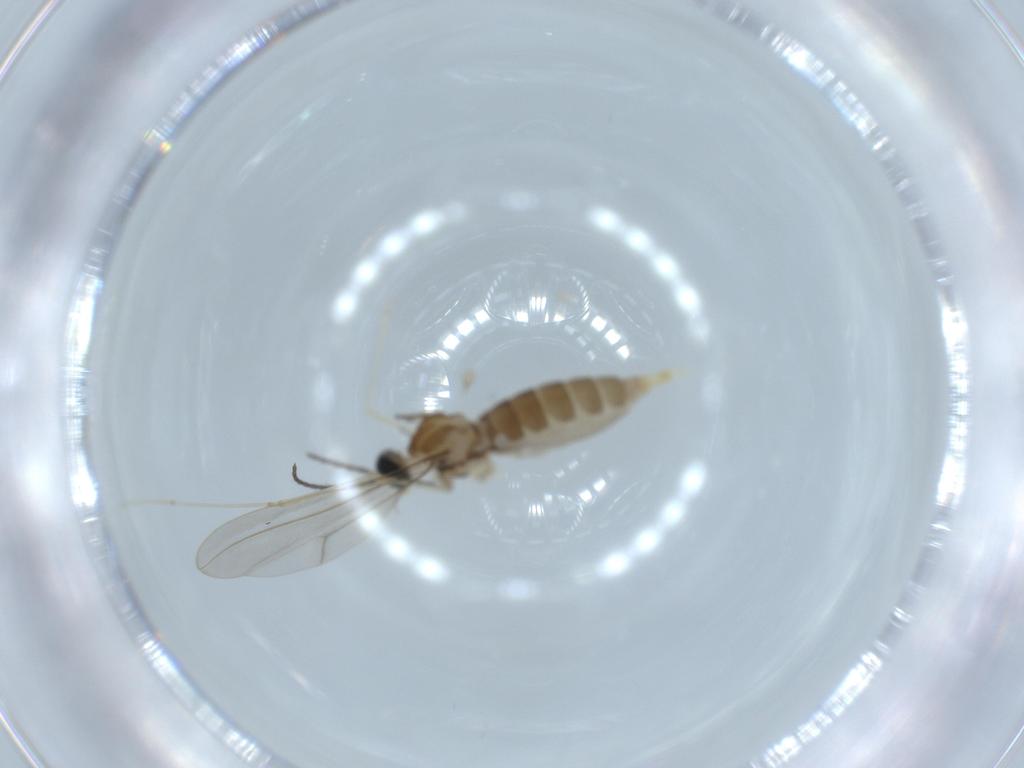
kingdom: Animalia
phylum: Arthropoda
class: Insecta
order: Diptera
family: Cecidomyiidae
